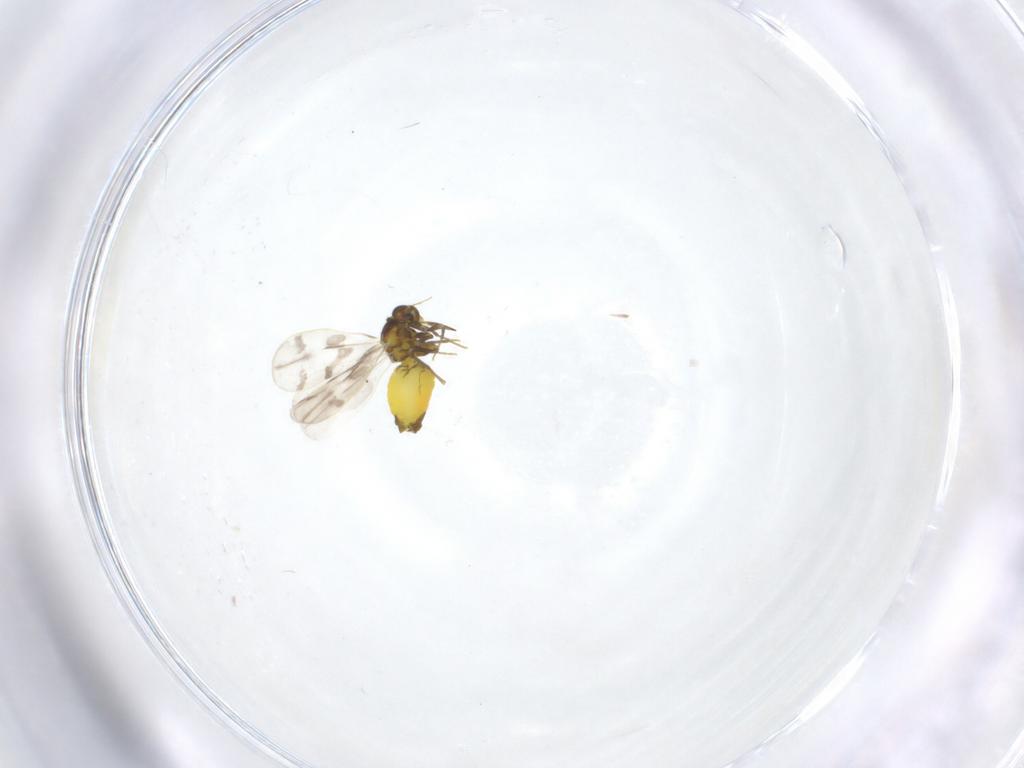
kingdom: Animalia
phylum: Arthropoda
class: Insecta
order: Hemiptera
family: Aleyrodidae
